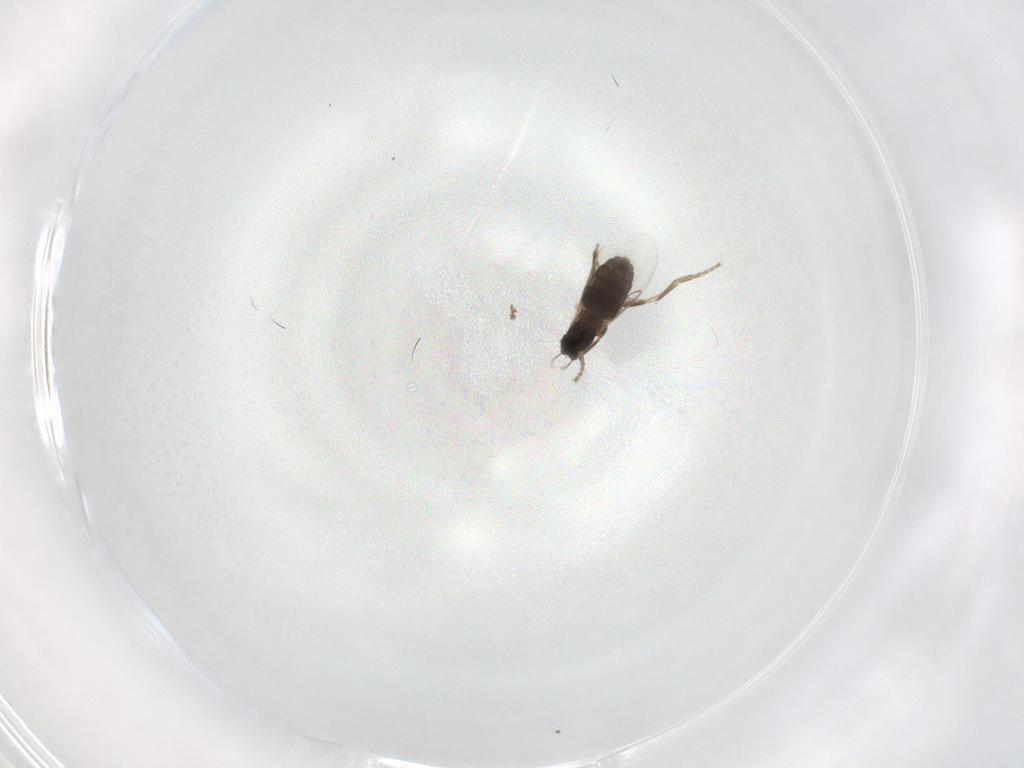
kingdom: Animalia
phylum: Arthropoda
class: Insecta
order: Diptera
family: Phoridae
